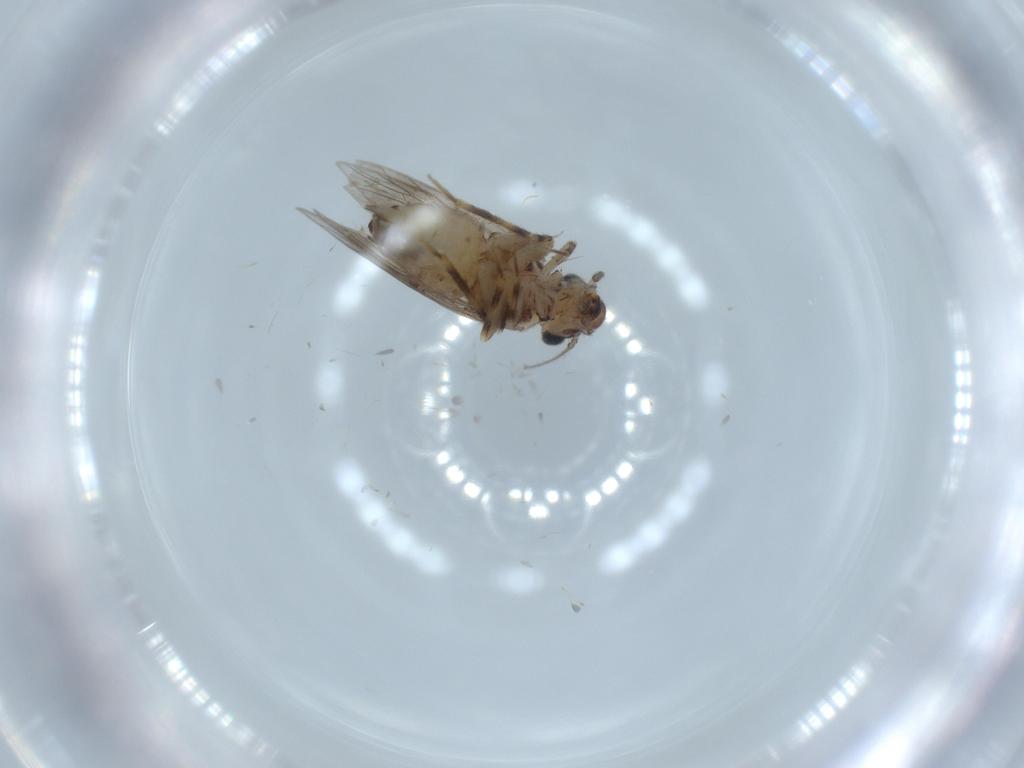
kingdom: Animalia
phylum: Arthropoda
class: Insecta
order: Psocodea
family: Lepidopsocidae
